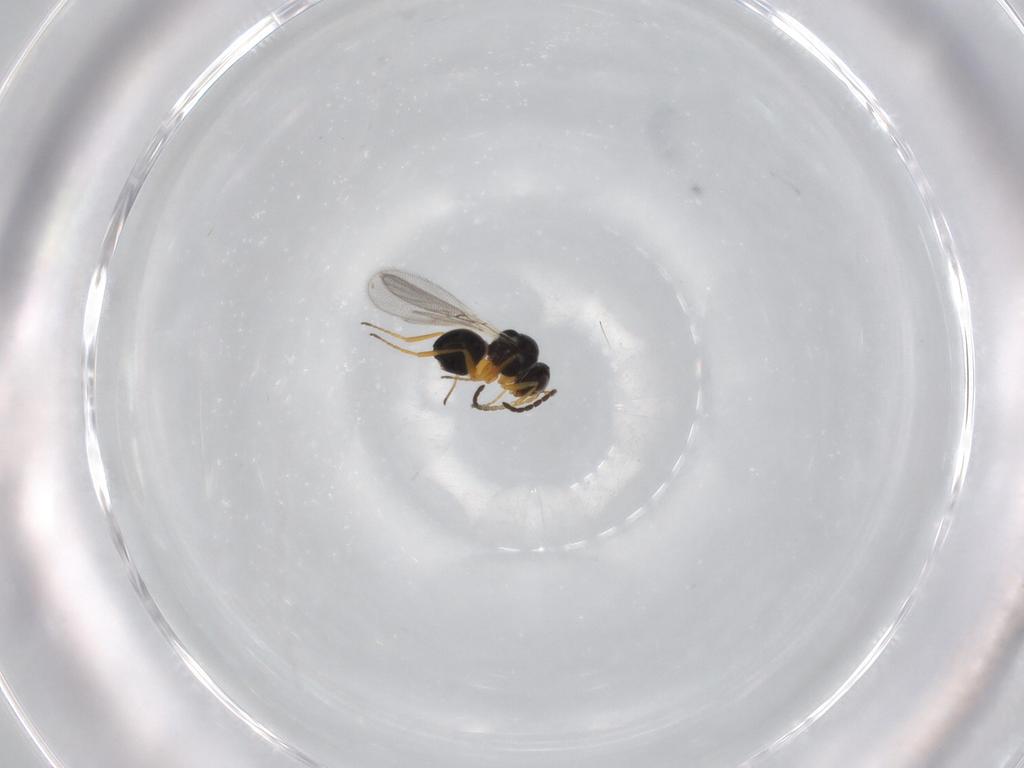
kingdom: Animalia
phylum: Arthropoda
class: Insecta
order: Hymenoptera
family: Figitidae
